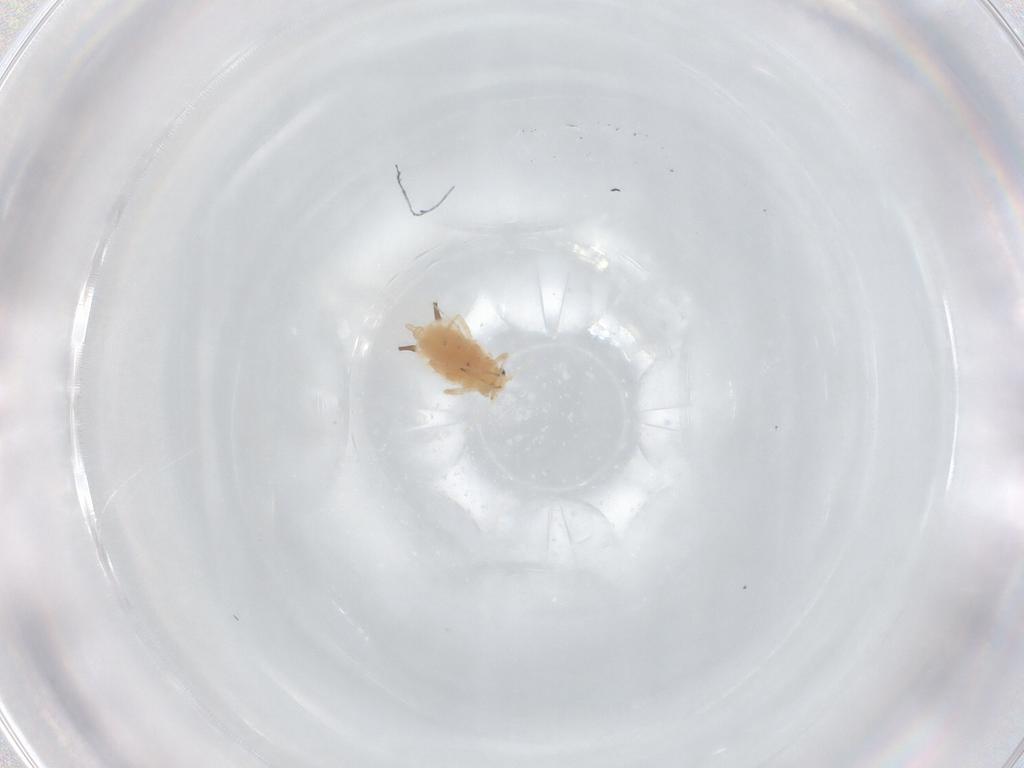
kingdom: Animalia
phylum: Arthropoda
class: Insecta
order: Hemiptera
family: Aphididae
